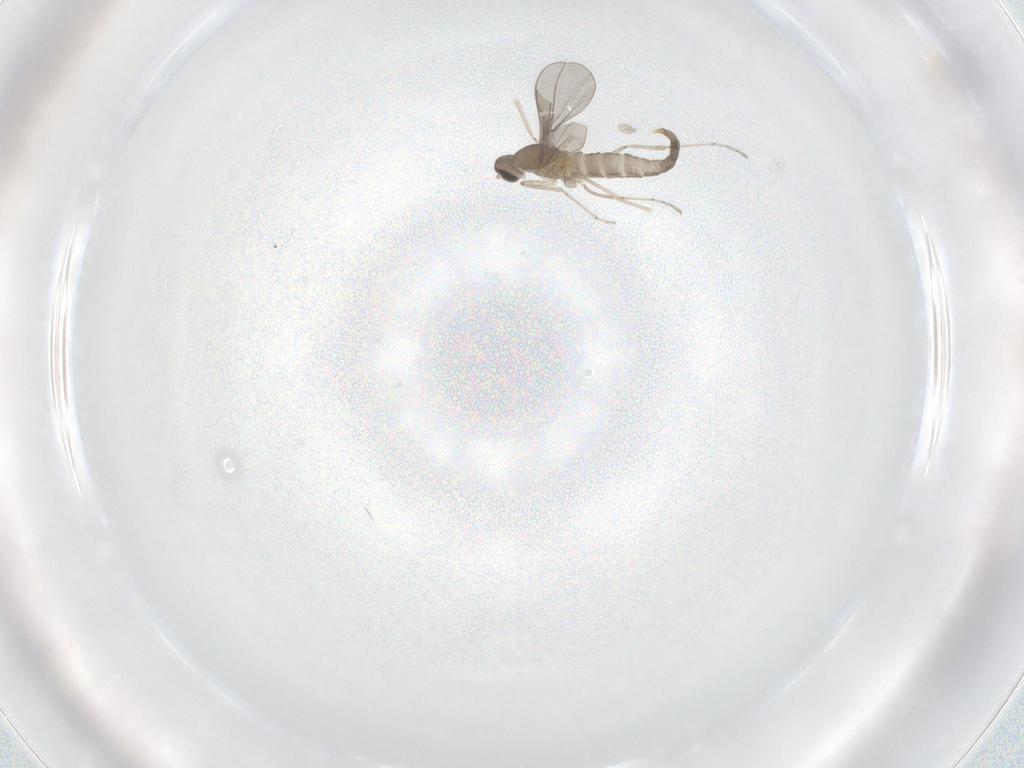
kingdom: Animalia
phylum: Arthropoda
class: Insecta
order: Diptera
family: Cecidomyiidae
